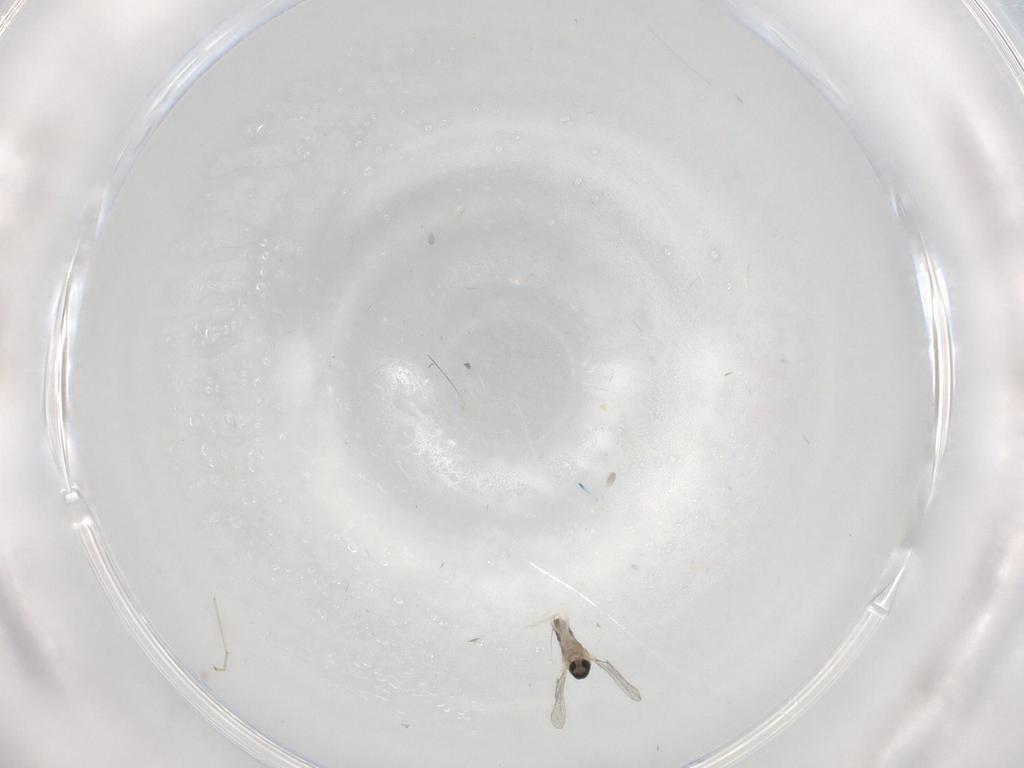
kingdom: Animalia
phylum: Arthropoda
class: Insecta
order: Diptera
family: Cecidomyiidae
